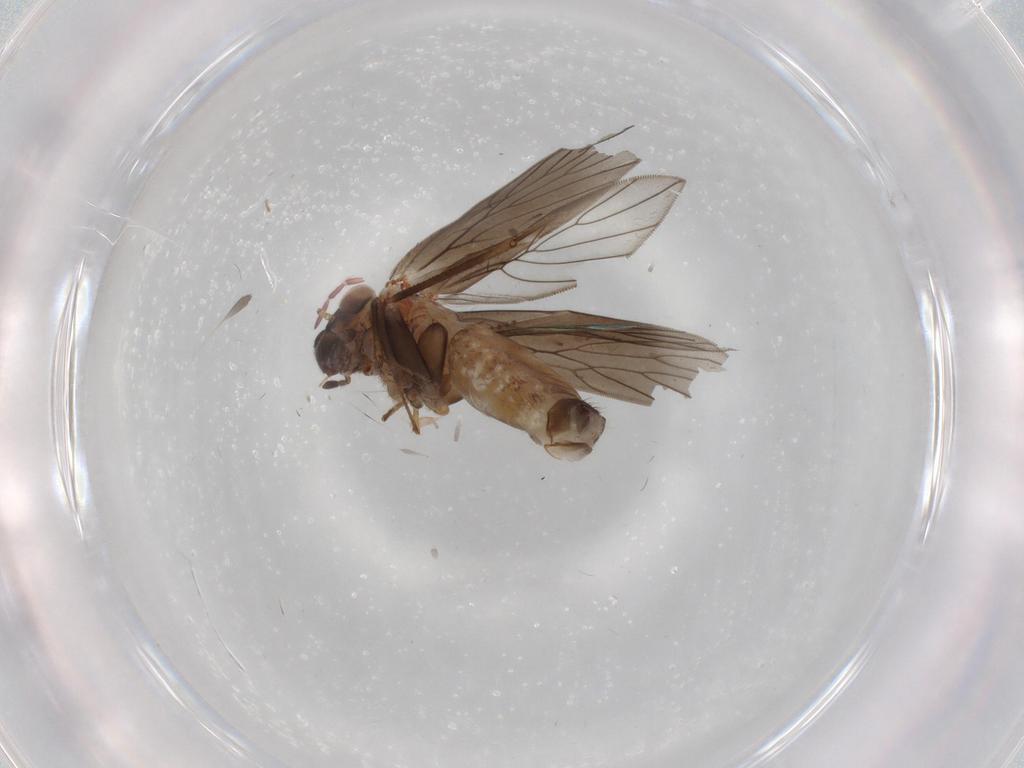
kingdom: Animalia
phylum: Arthropoda
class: Insecta
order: Psocodea
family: Lepidopsocidae
